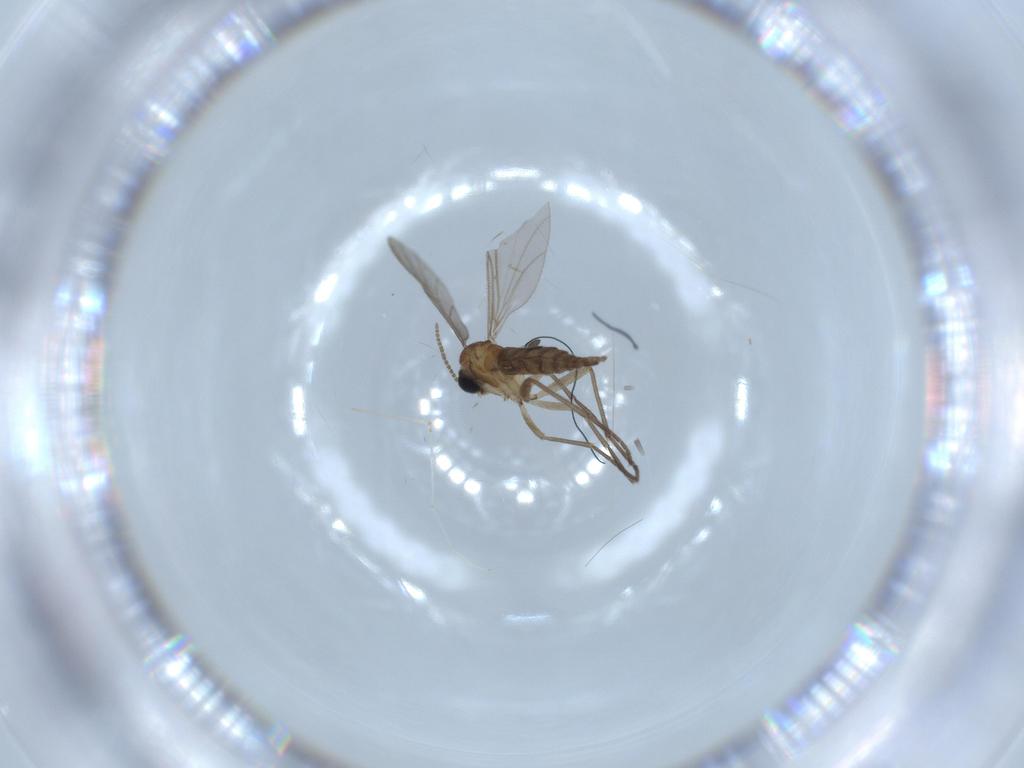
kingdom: Animalia
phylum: Arthropoda
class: Insecta
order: Diptera
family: Sciaridae
